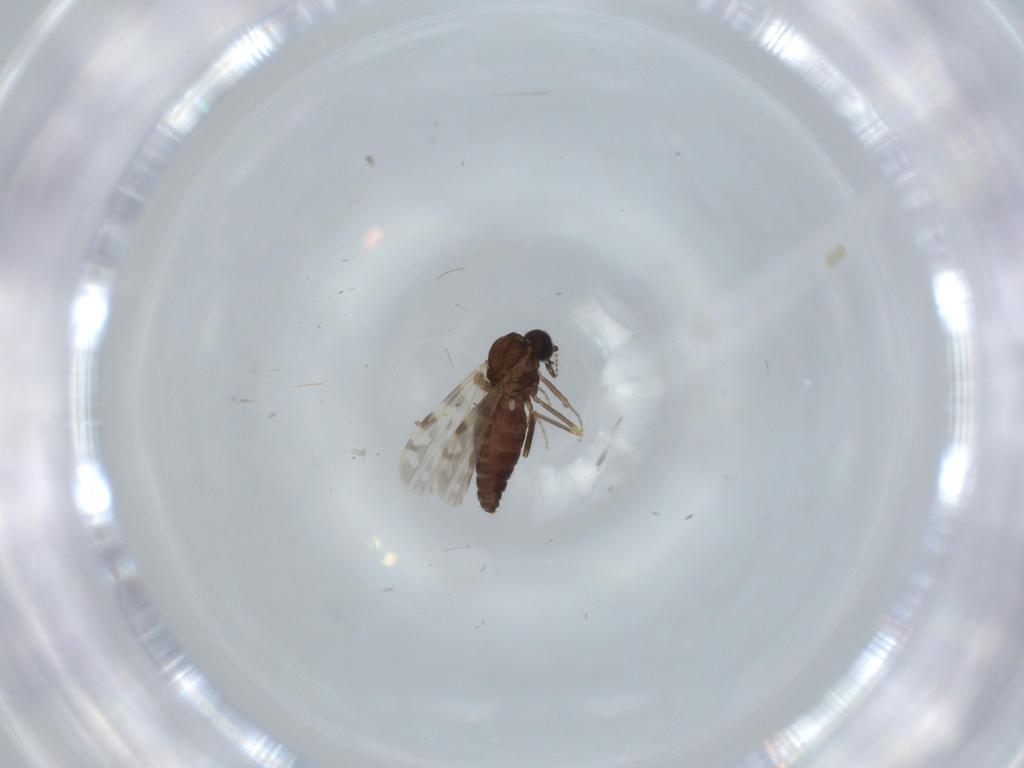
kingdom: Animalia
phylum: Arthropoda
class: Insecta
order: Diptera
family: Ceratopogonidae
